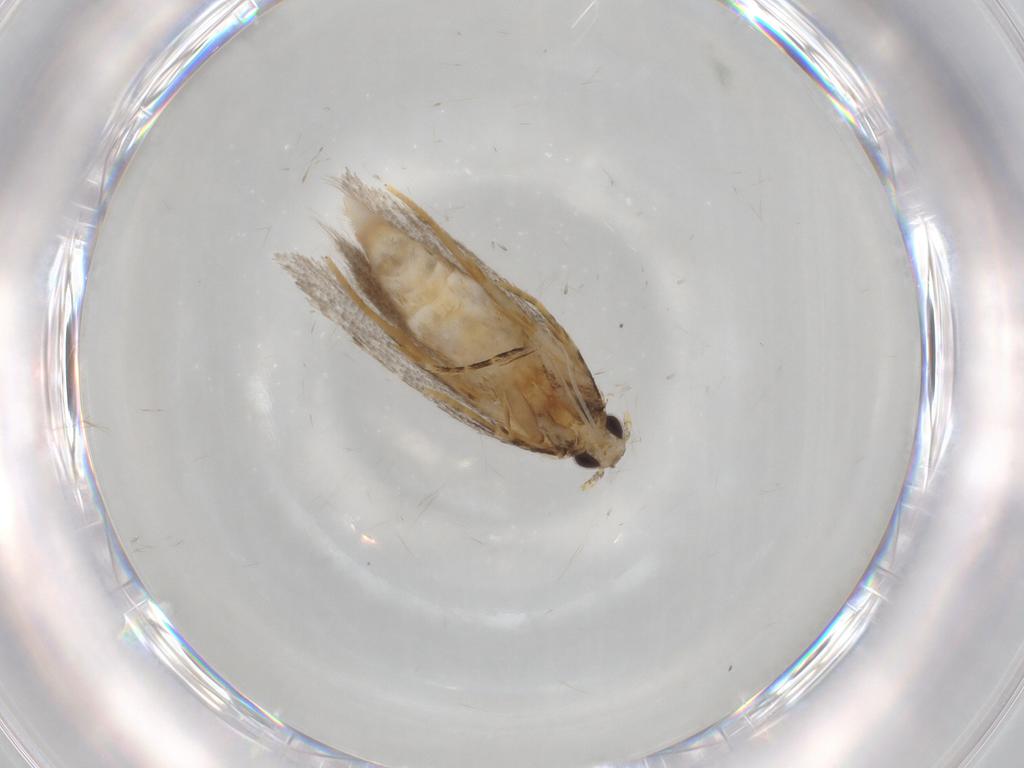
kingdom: Animalia
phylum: Arthropoda
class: Insecta
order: Lepidoptera
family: Autostichidae
